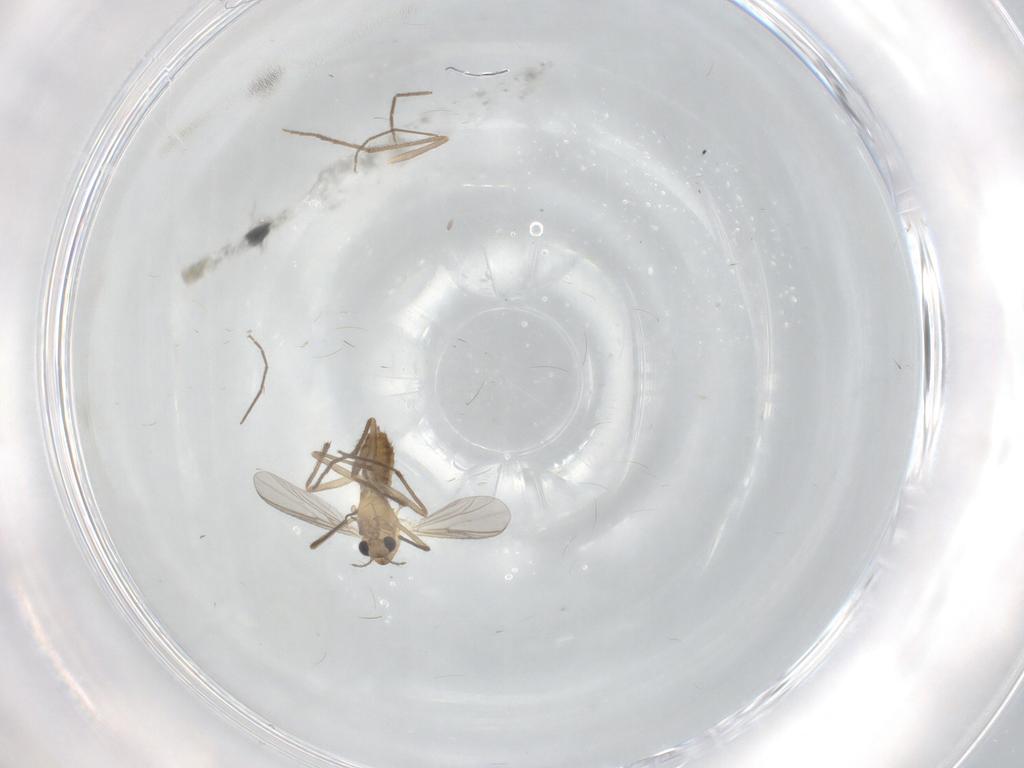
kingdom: Animalia
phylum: Arthropoda
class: Insecta
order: Diptera
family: Chironomidae
